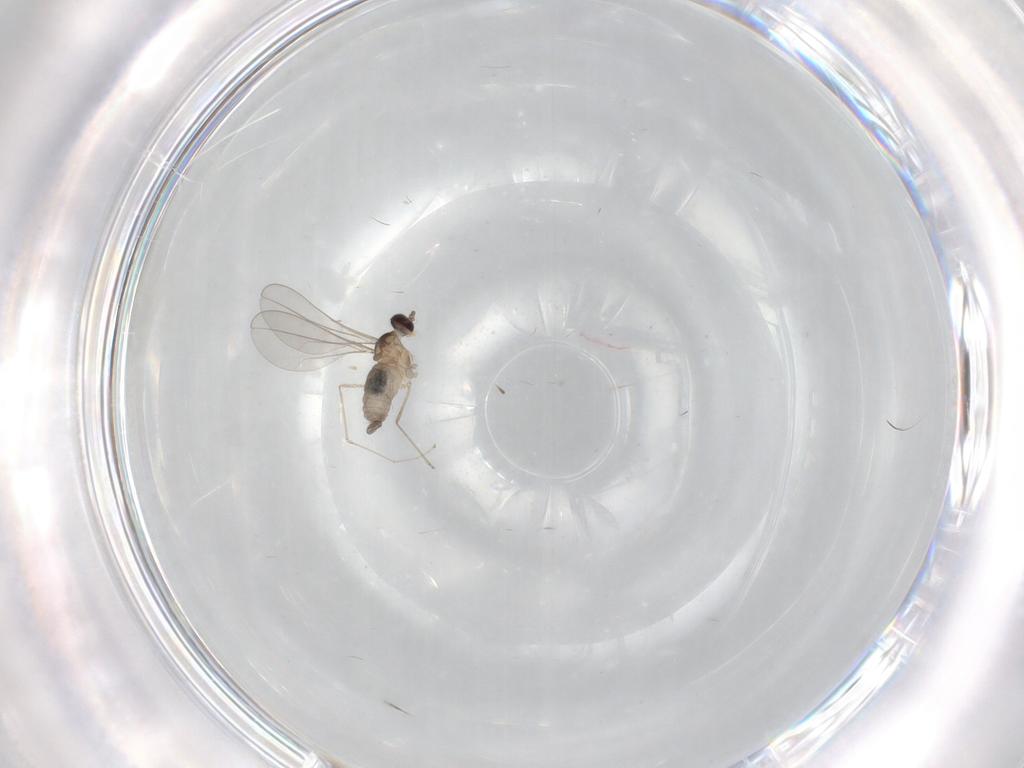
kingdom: Animalia
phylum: Arthropoda
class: Insecta
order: Diptera
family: Cecidomyiidae
